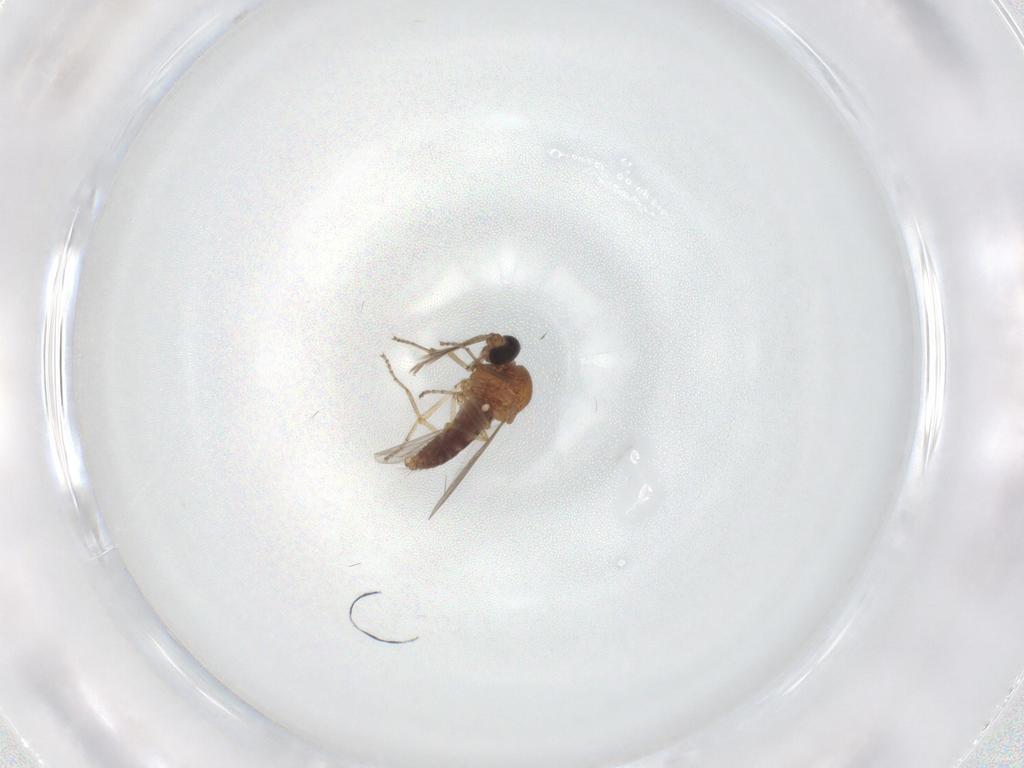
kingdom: Animalia
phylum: Arthropoda
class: Insecta
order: Diptera
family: Ceratopogonidae
